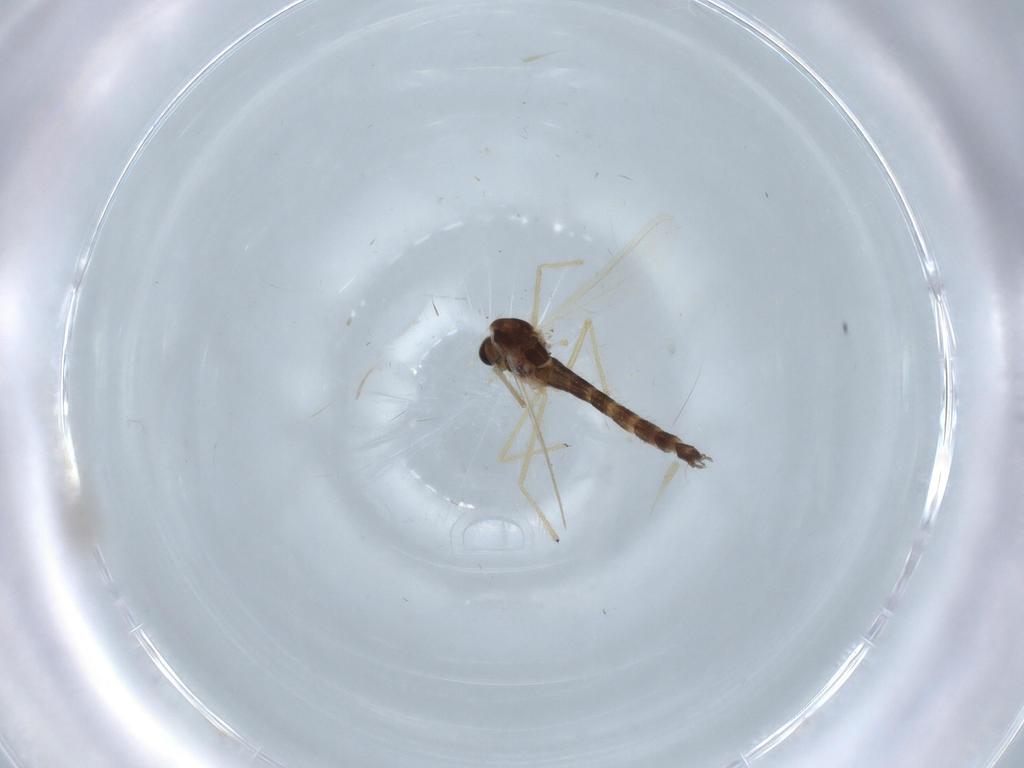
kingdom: Animalia
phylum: Arthropoda
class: Insecta
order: Diptera
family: Chironomidae
